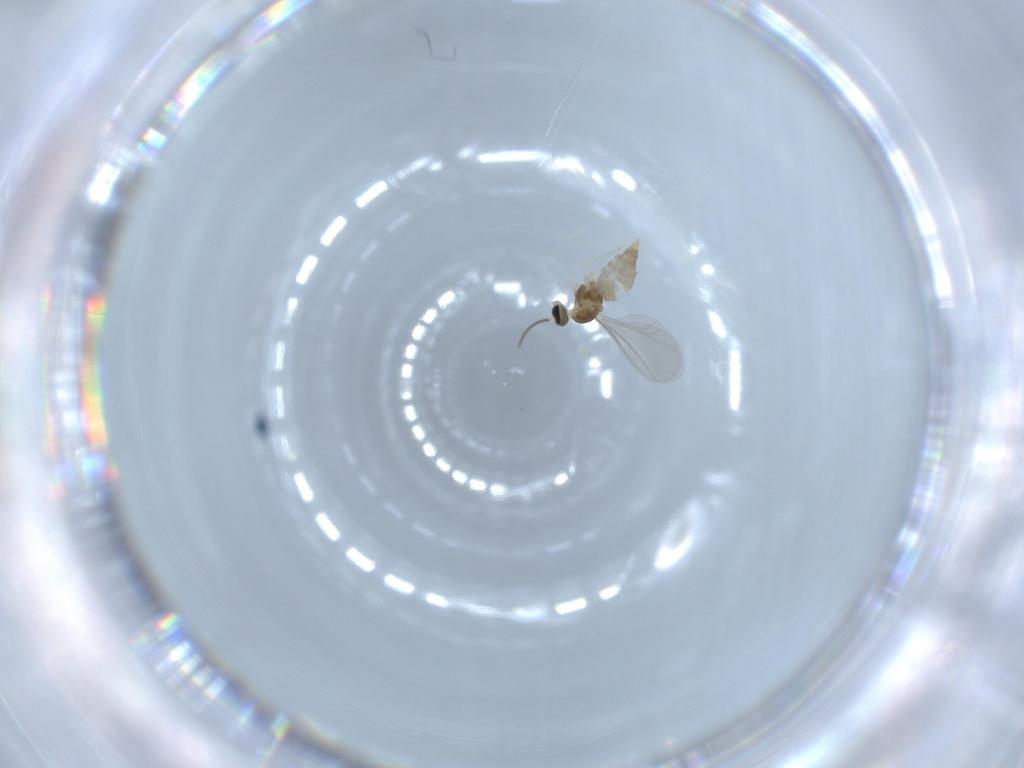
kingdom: Animalia
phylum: Arthropoda
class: Insecta
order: Diptera
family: Cecidomyiidae
